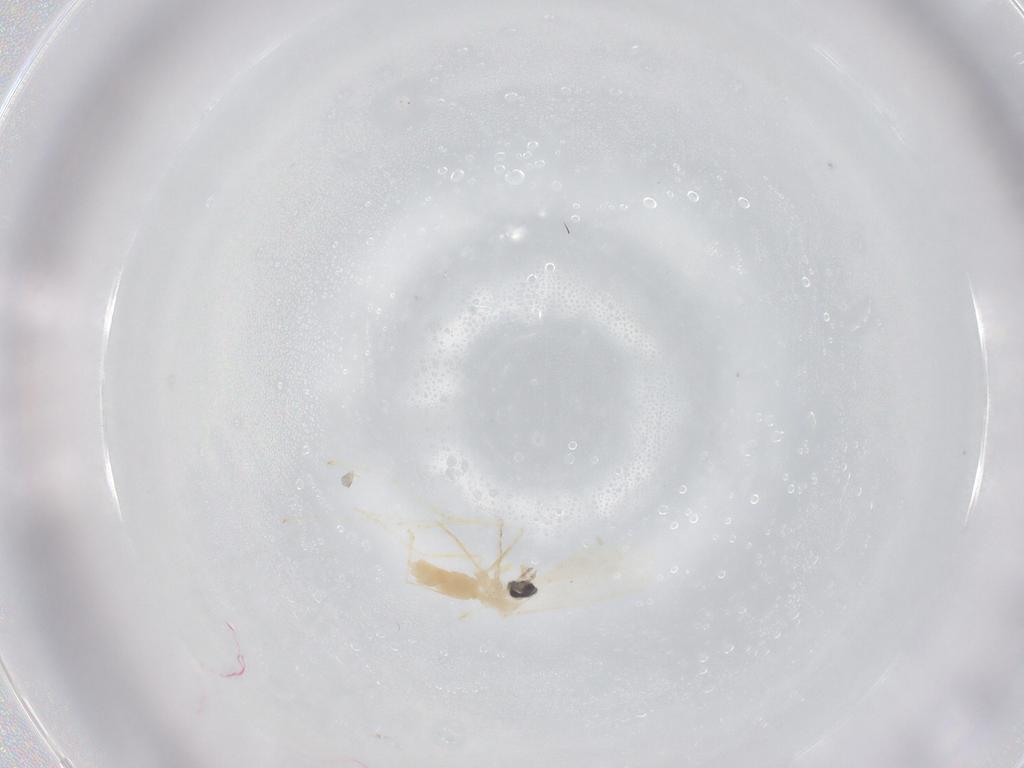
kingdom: Animalia
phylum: Arthropoda
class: Insecta
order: Diptera
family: Cecidomyiidae
